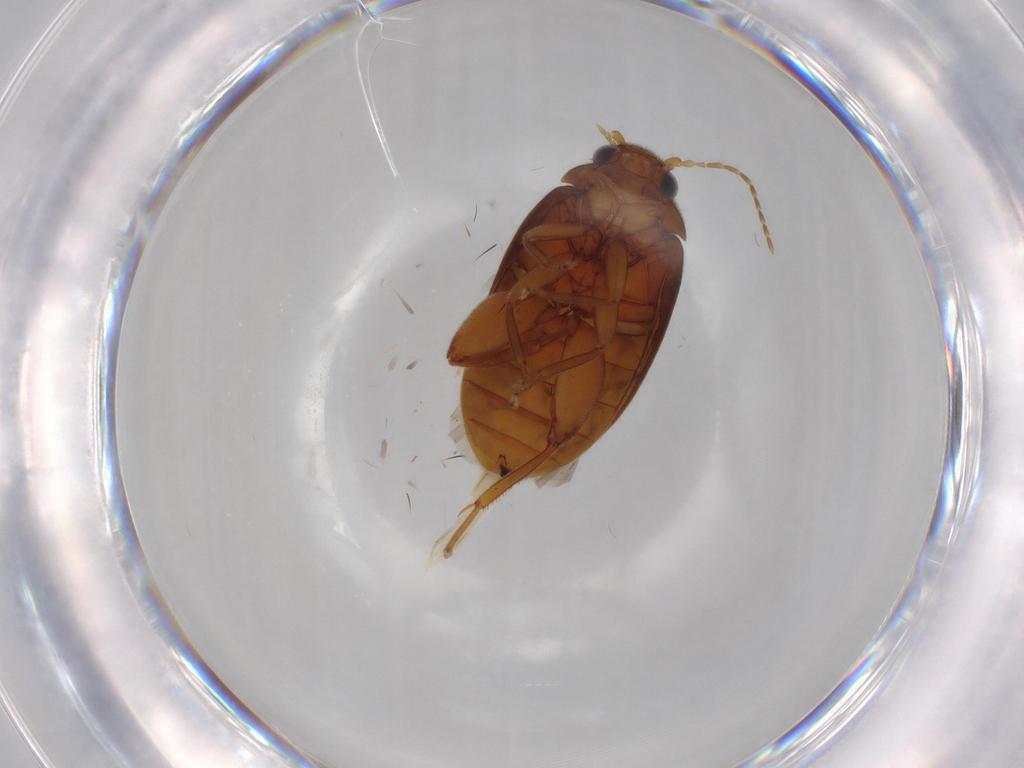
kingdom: Animalia
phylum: Arthropoda
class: Insecta
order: Coleoptera
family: Scirtidae
